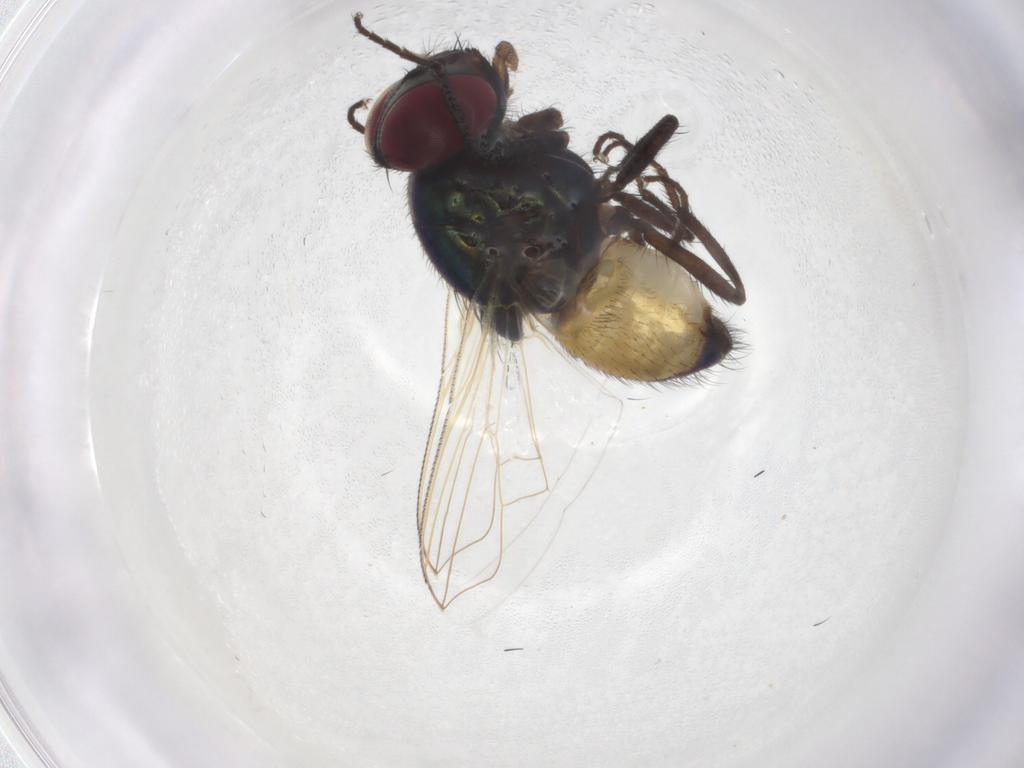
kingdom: Animalia
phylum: Arthropoda
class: Insecta
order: Diptera
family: Muscidae
